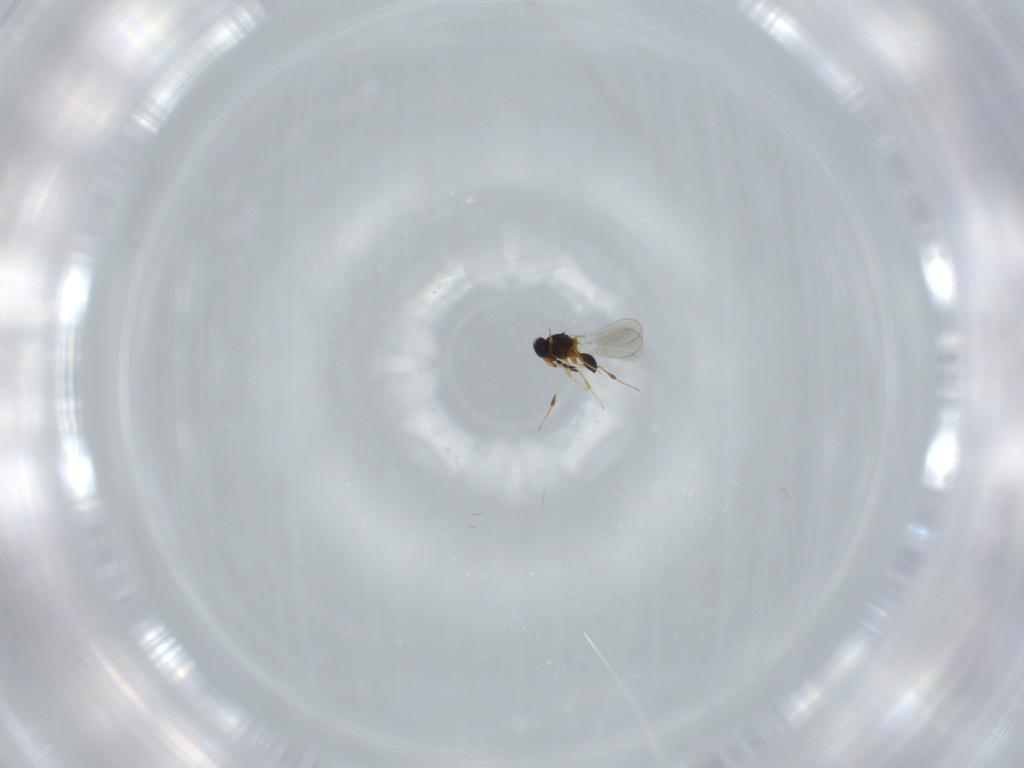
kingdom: Animalia
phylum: Arthropoda
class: Insecta
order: Hymenoptera
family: Platygastridae
